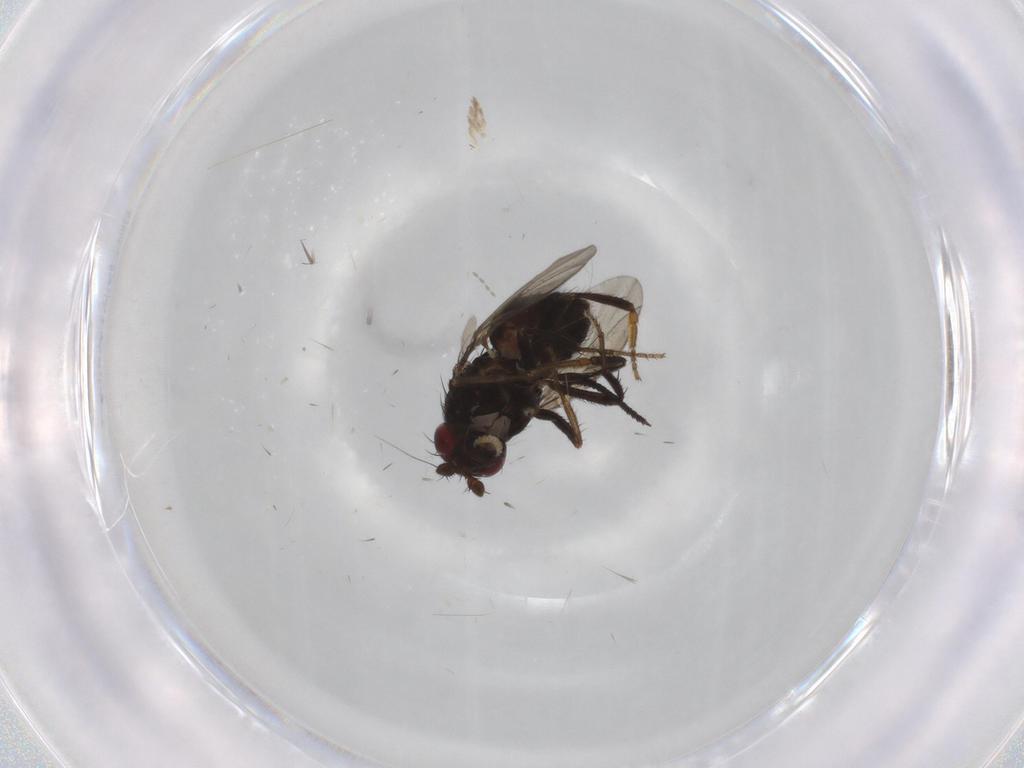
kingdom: Animalia
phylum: Arthropoda
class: Insecta
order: Diptera
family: Sphaeroceridae
